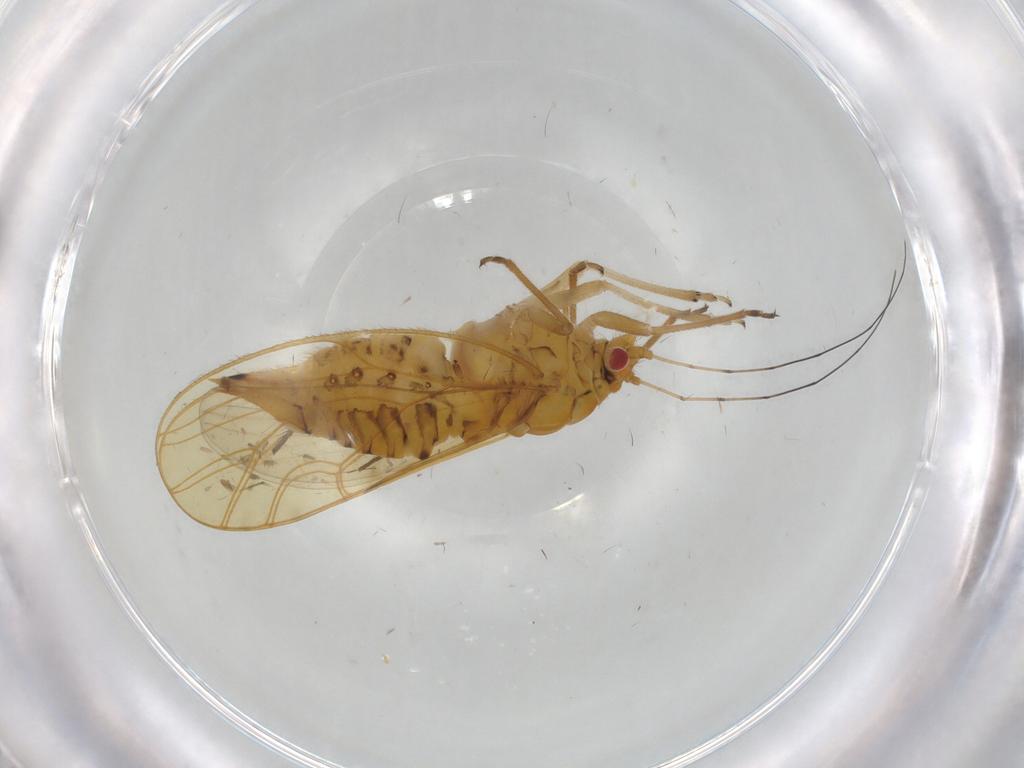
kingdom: Animalia
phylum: Arthropoda
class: Insecta
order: Hemiptera
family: Psyllidae
